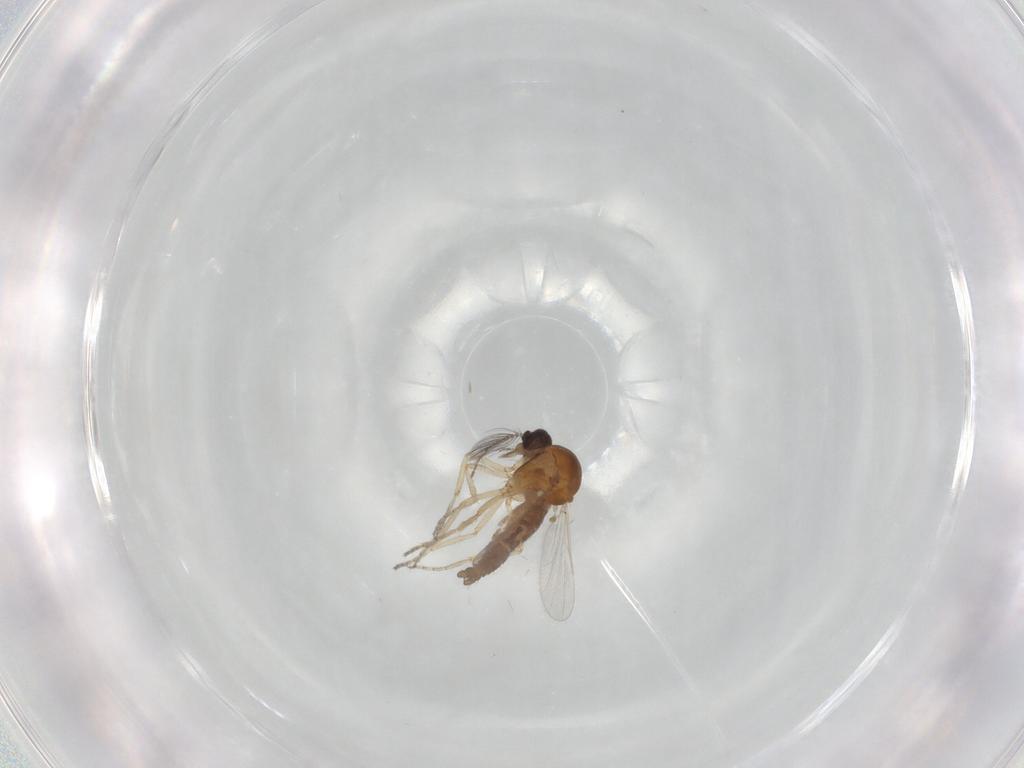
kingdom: Animalia
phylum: Arthropoda
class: Insecta
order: Diptera
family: Ceratopogonidae
